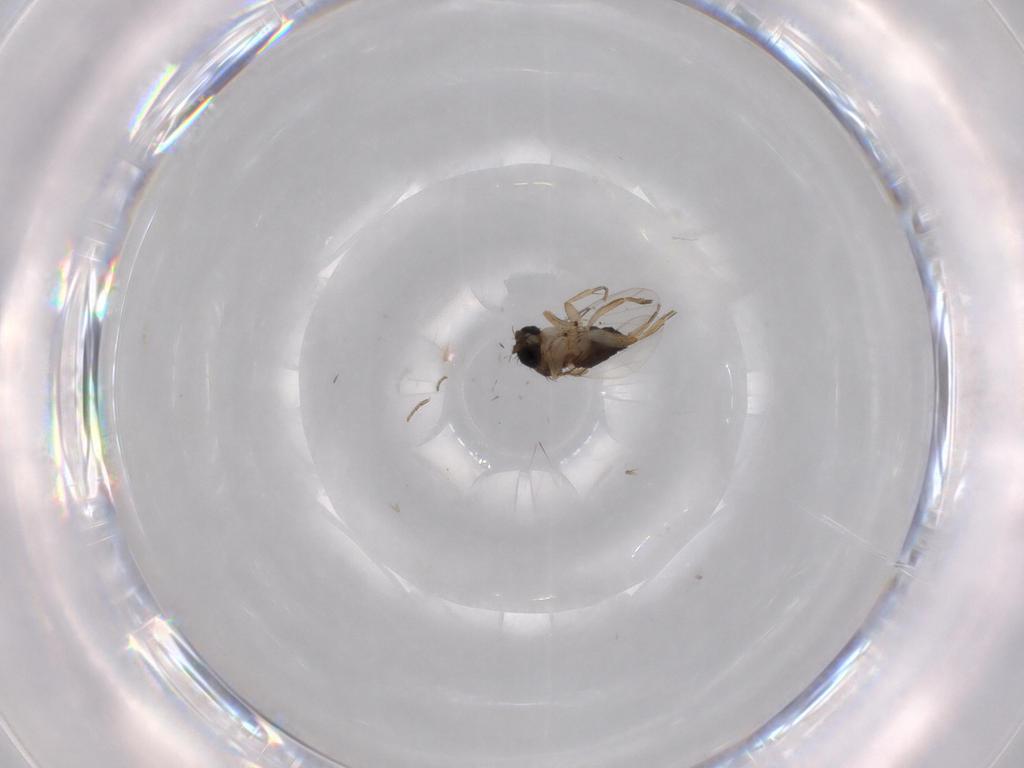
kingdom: Animalia
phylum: Arthropoda
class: Insecta
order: Diptera
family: Phoridae
